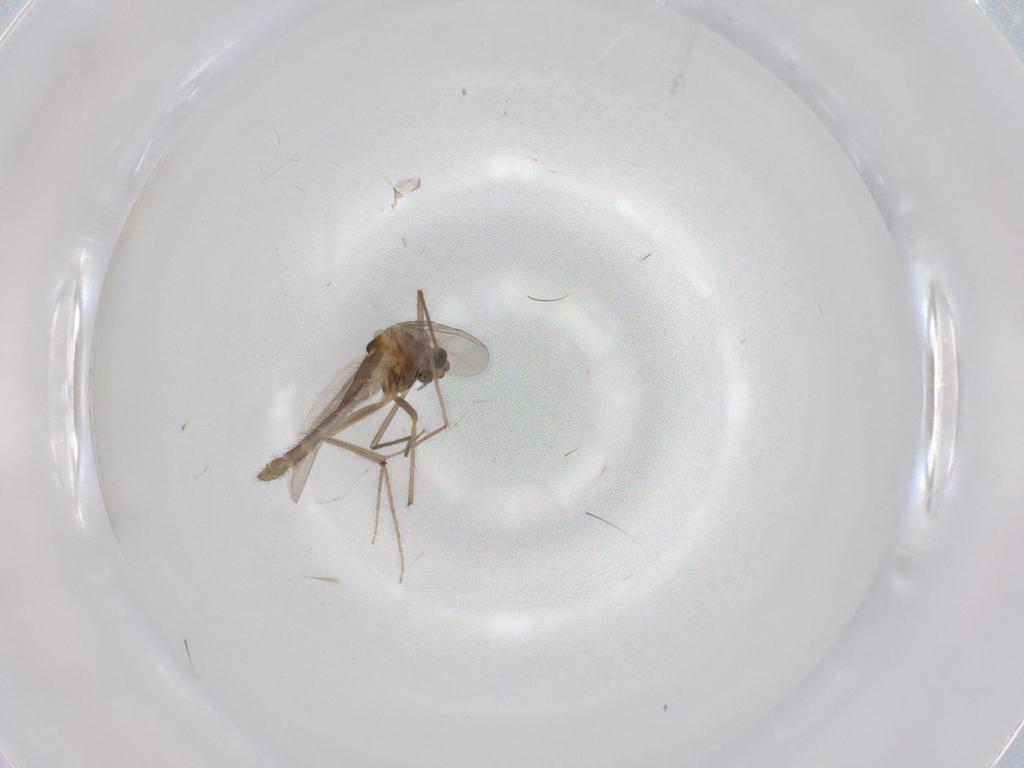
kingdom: Animalia
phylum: Arthropoda
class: Insecta
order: Diptera
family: Chironomidae
